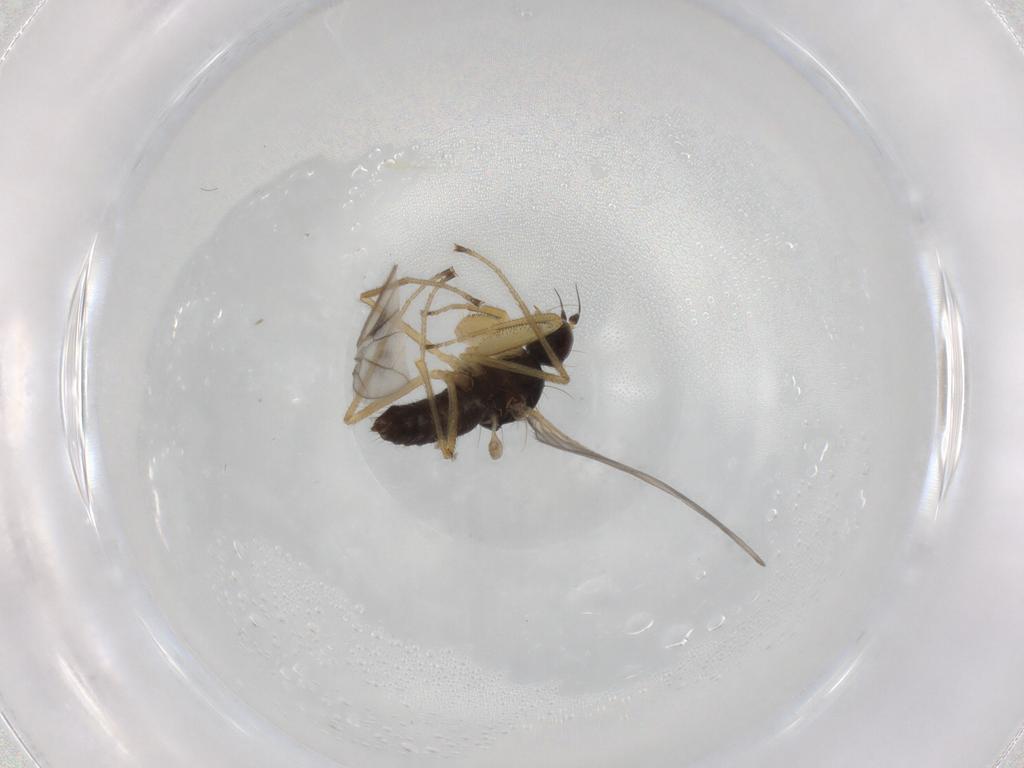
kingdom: Animalia
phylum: Arthropoda
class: Insecta
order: Diptera
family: Chironomidae
